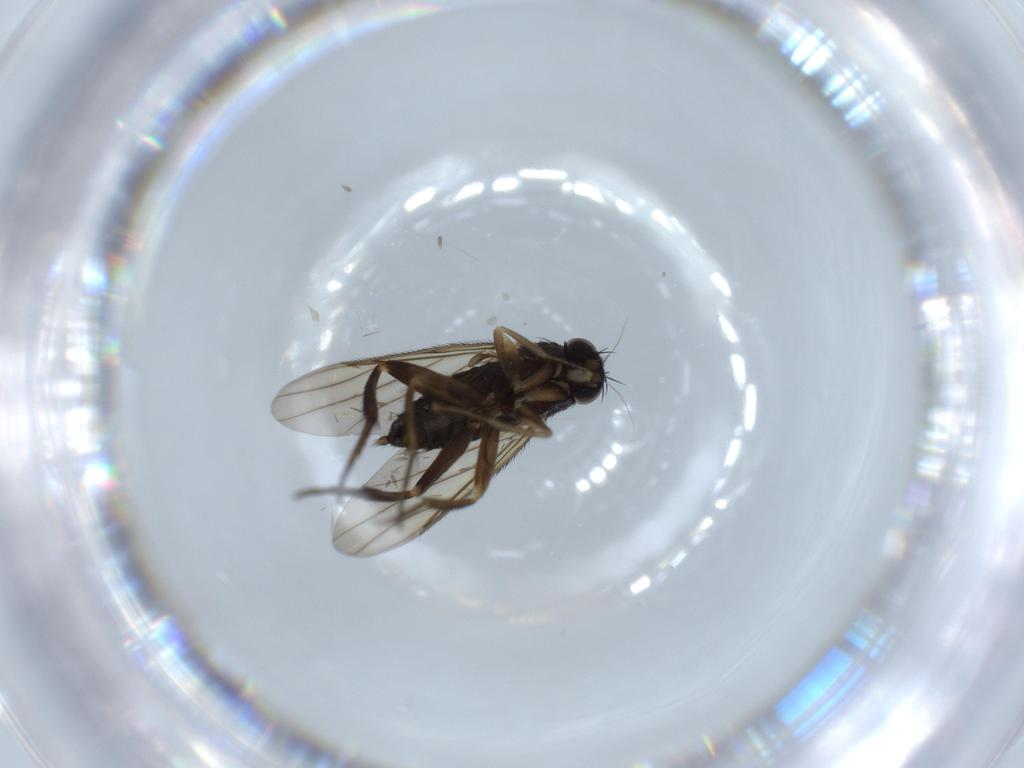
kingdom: Animalia
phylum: Arthropoda
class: Insecta
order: Diptera
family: Phoridae
